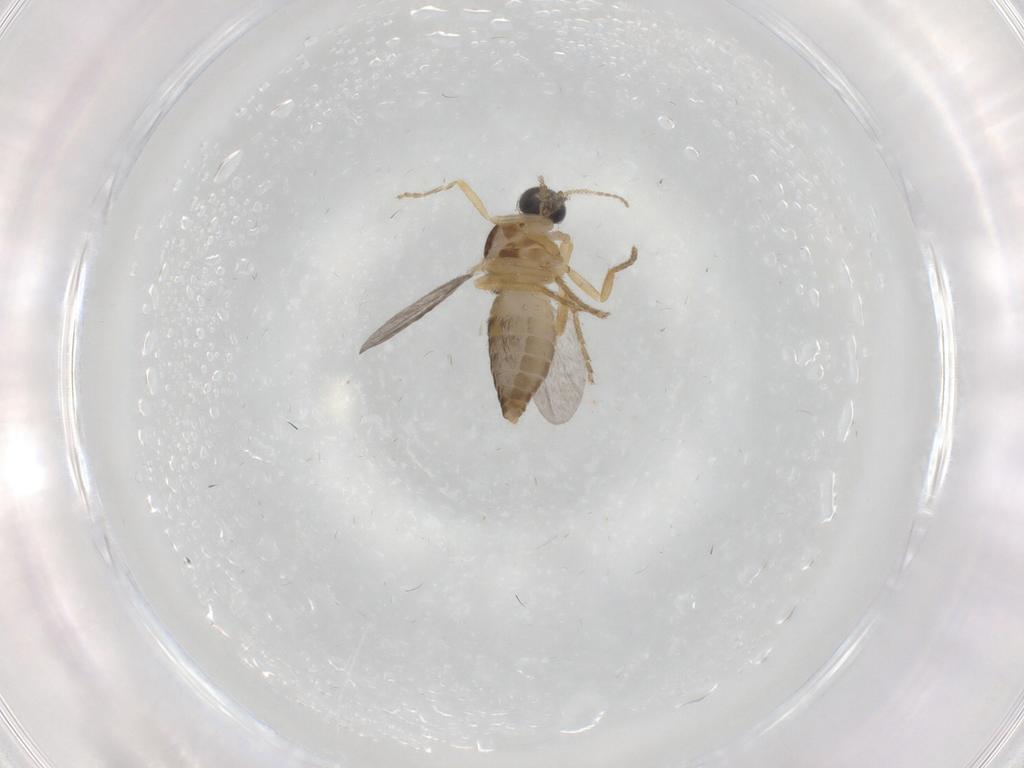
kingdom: Animalia
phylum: Arthropoda
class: Insecta
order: Diptera
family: Ceratopogonidae
